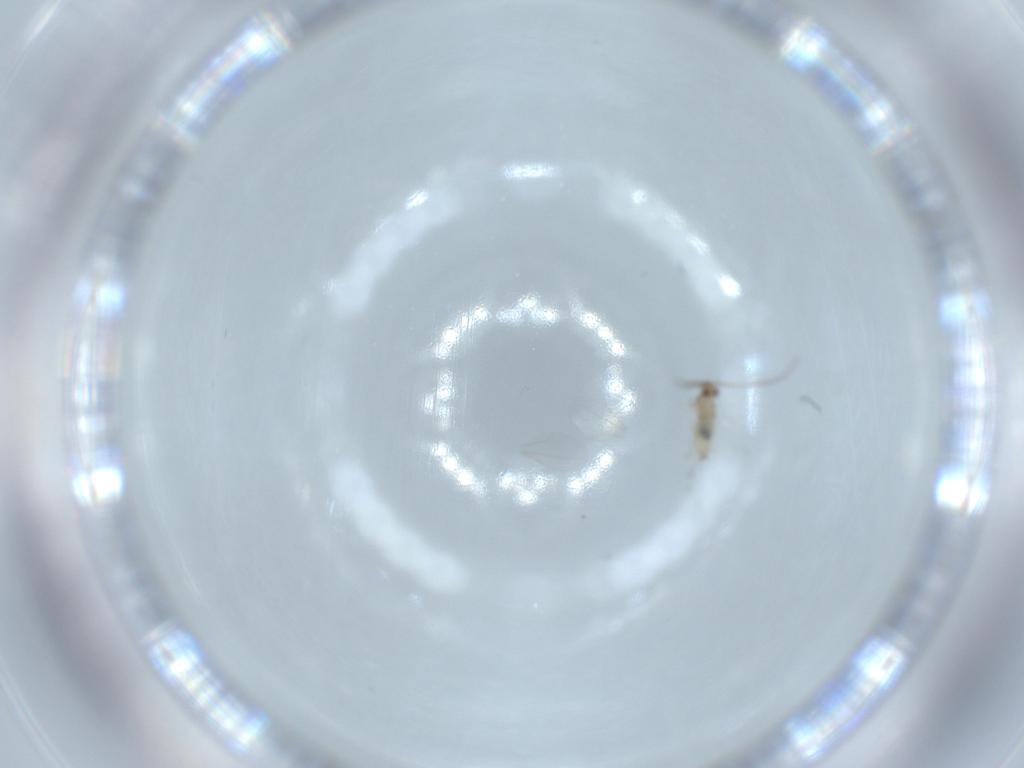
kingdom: Animalia
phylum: Arthropoda
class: Insecta
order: Diptera
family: Cecidomyiidae
